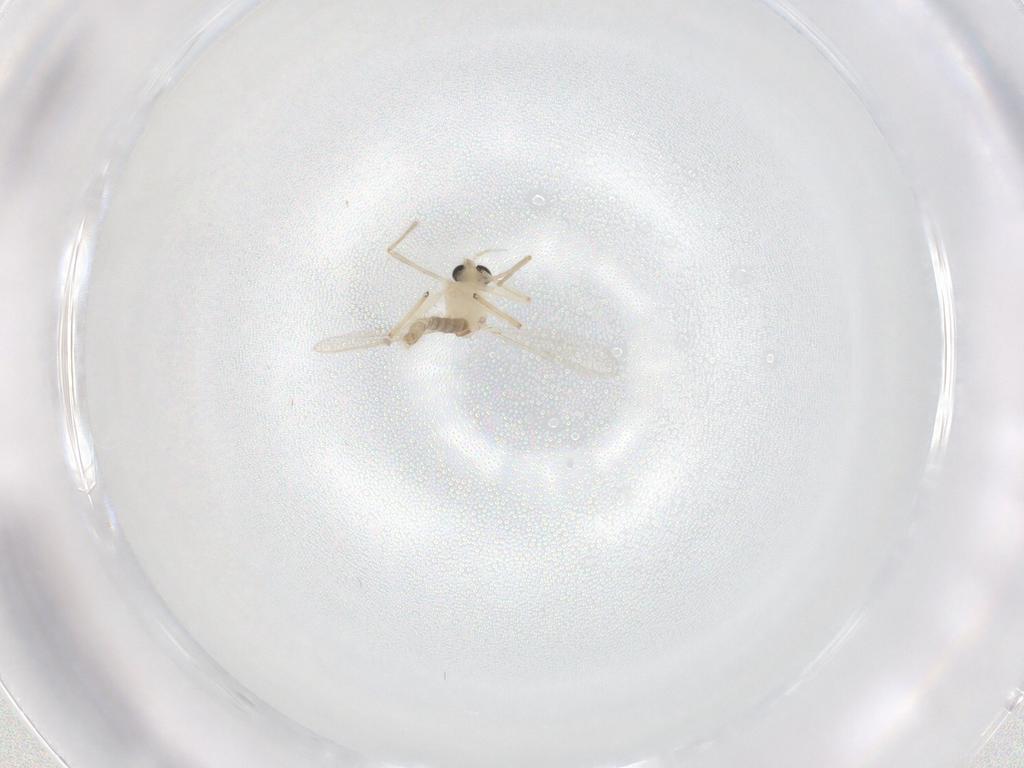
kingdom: Animalia
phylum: Arthropoda
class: Insecta
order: Diptera
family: Chironomidae
